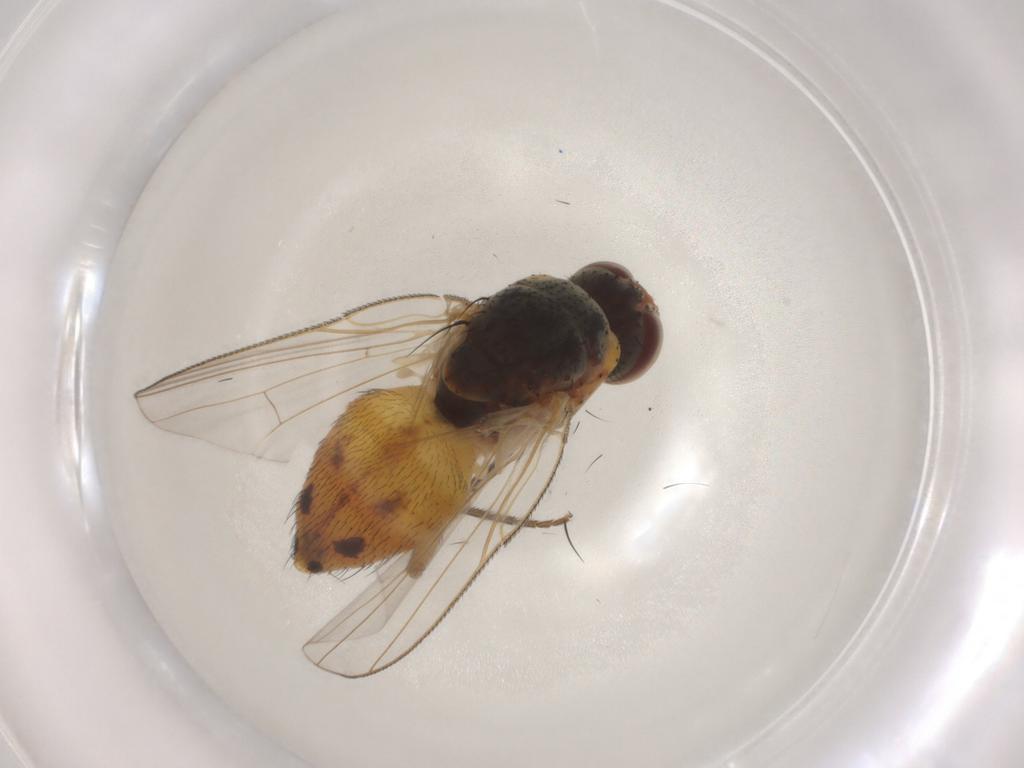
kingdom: Animalia
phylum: Arthropoda
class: Insecta
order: Diptera
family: Muscidae
